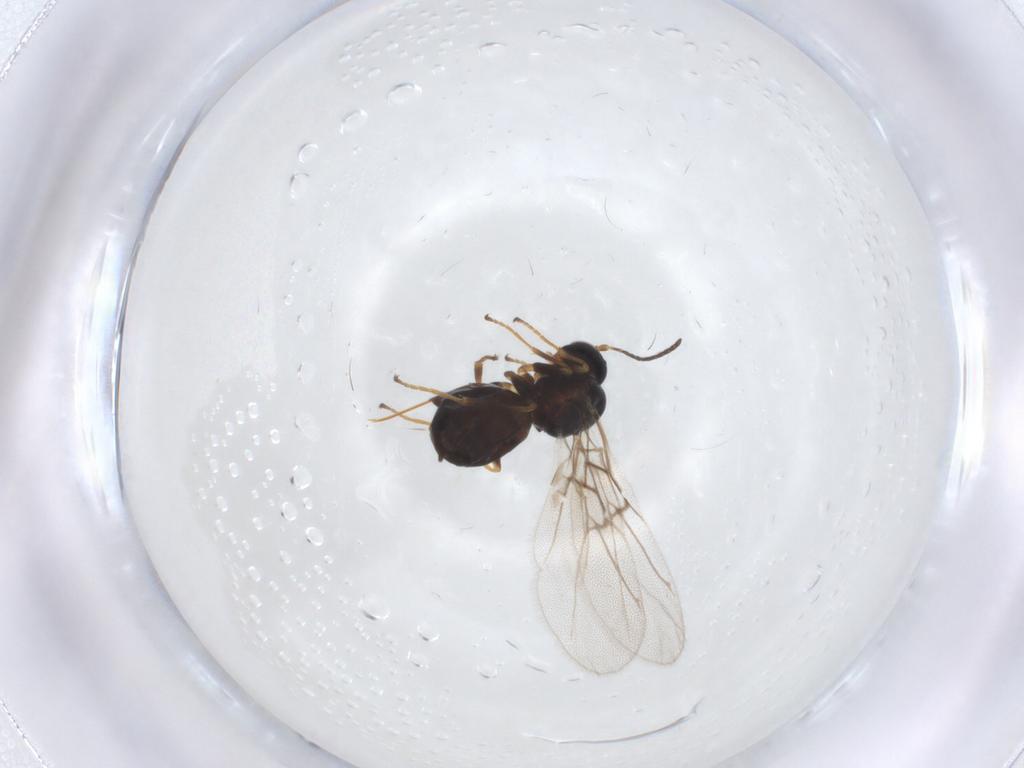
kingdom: Animalia
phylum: Arthropoda
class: Insecta
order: Hymenoptera
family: Cynipidae
